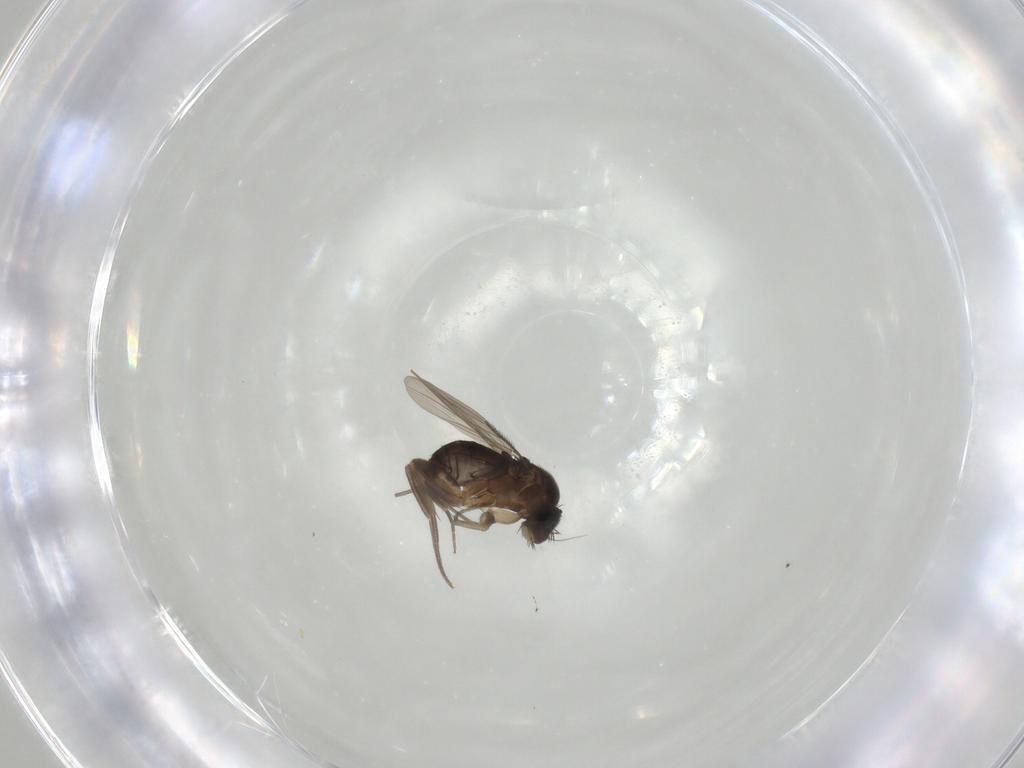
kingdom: Animalia
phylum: Arthropoda
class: Insecta
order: Diptera
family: Phoridae
